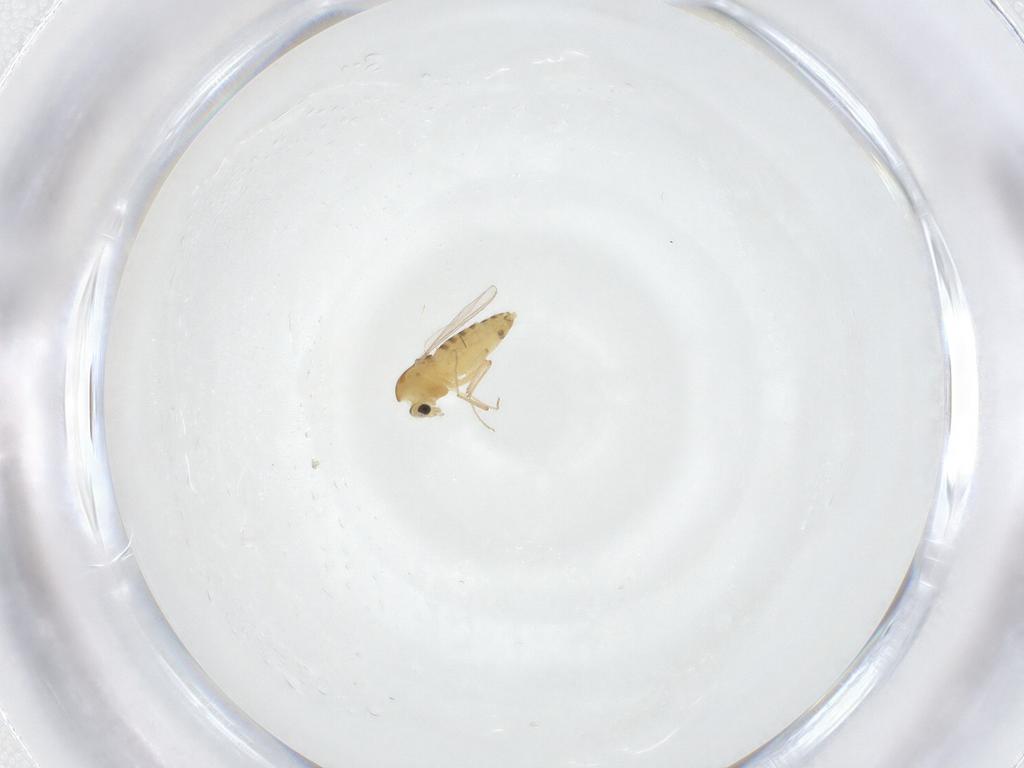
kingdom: Animalia
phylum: Arthropoda
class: Insecta
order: Diptera
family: Chironomidae
